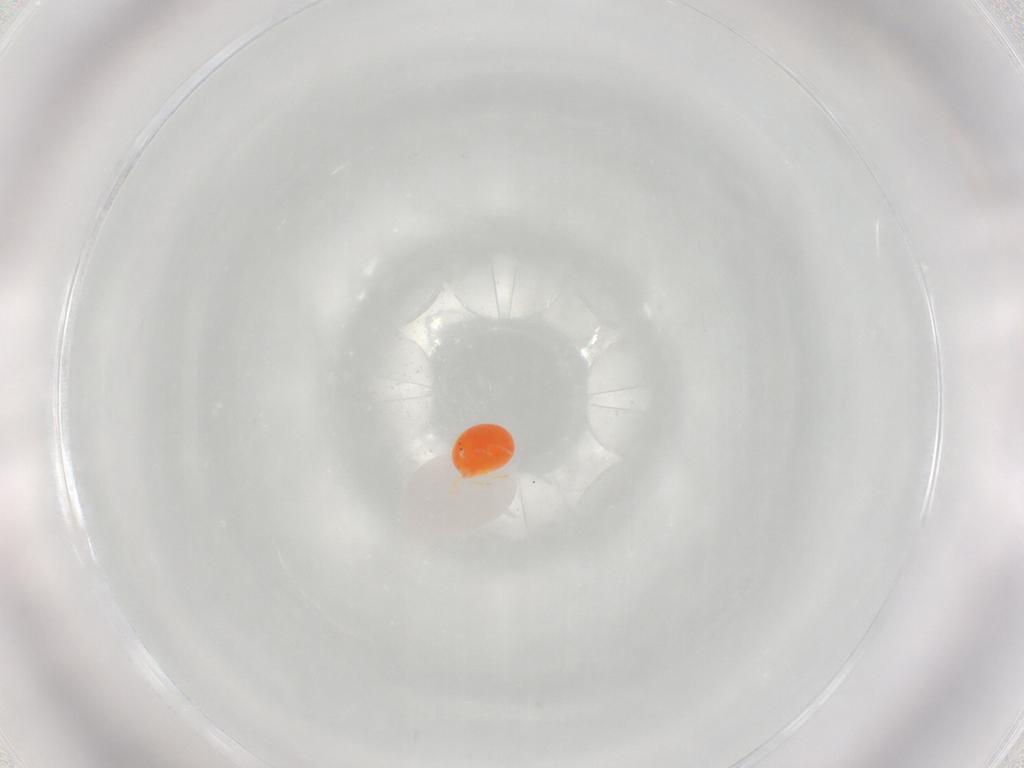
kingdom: Animalia
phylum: Arthropoda
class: Arachnida
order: Trombidiformes
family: Hydryphantidae
